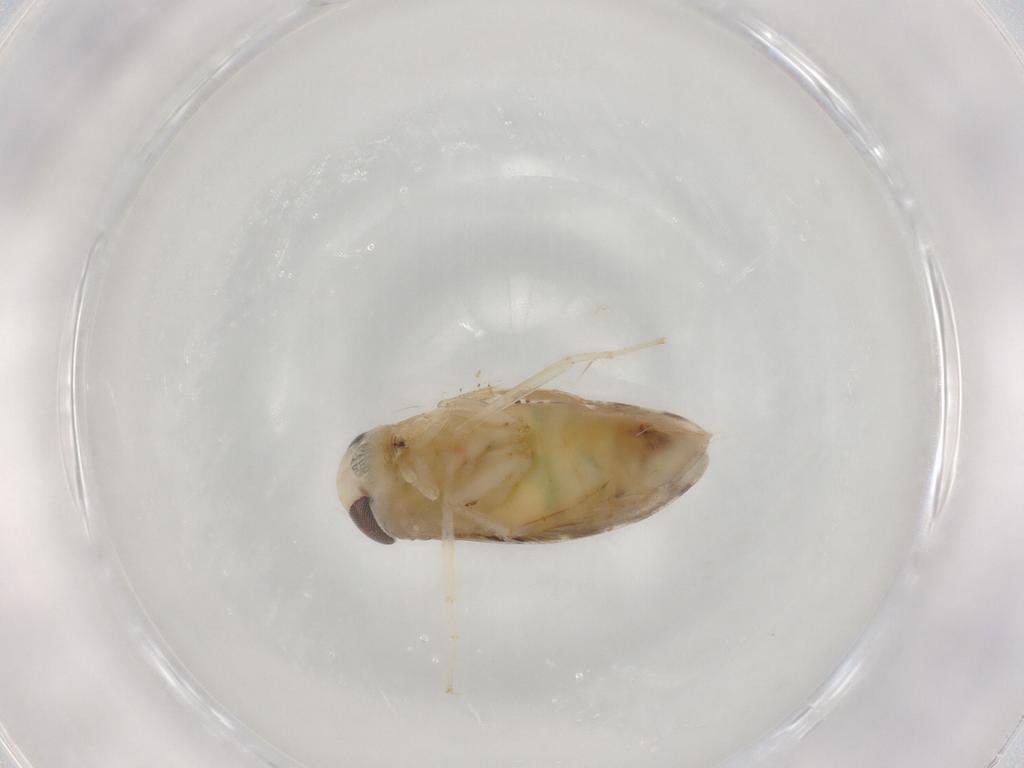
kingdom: Animalia
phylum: Arthropoda
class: Insecta
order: Hemiptera
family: Corixidae
